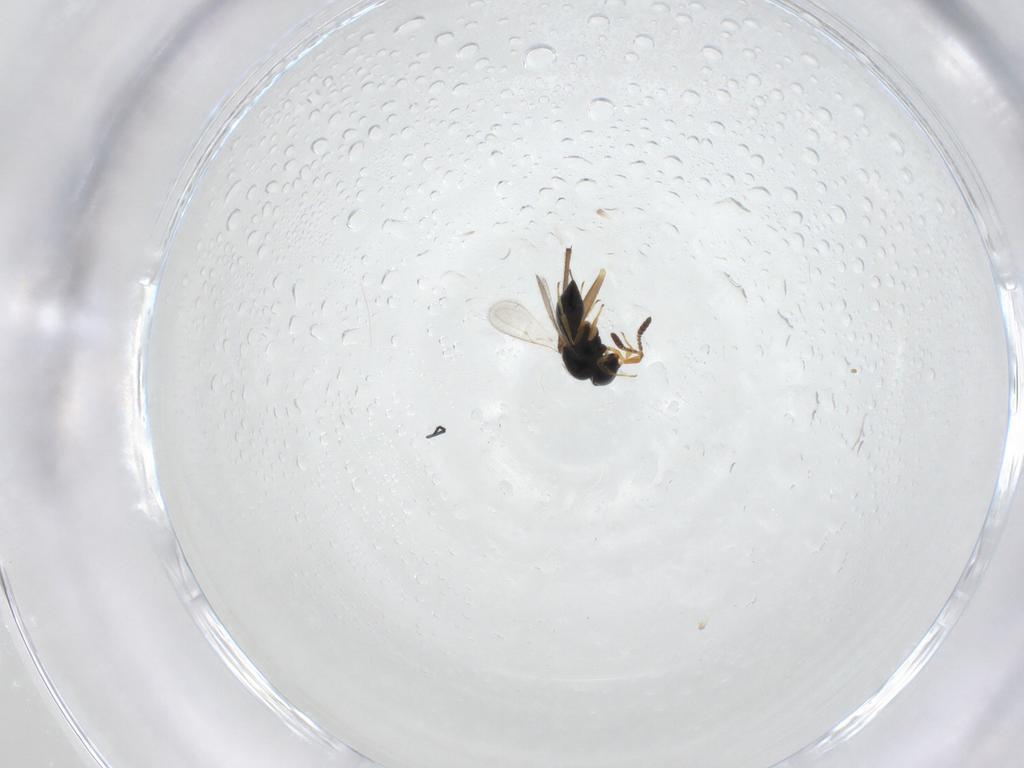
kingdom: Animalia
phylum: Arthropoda
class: Insecta
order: Hymenoptera
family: Scelionidae
